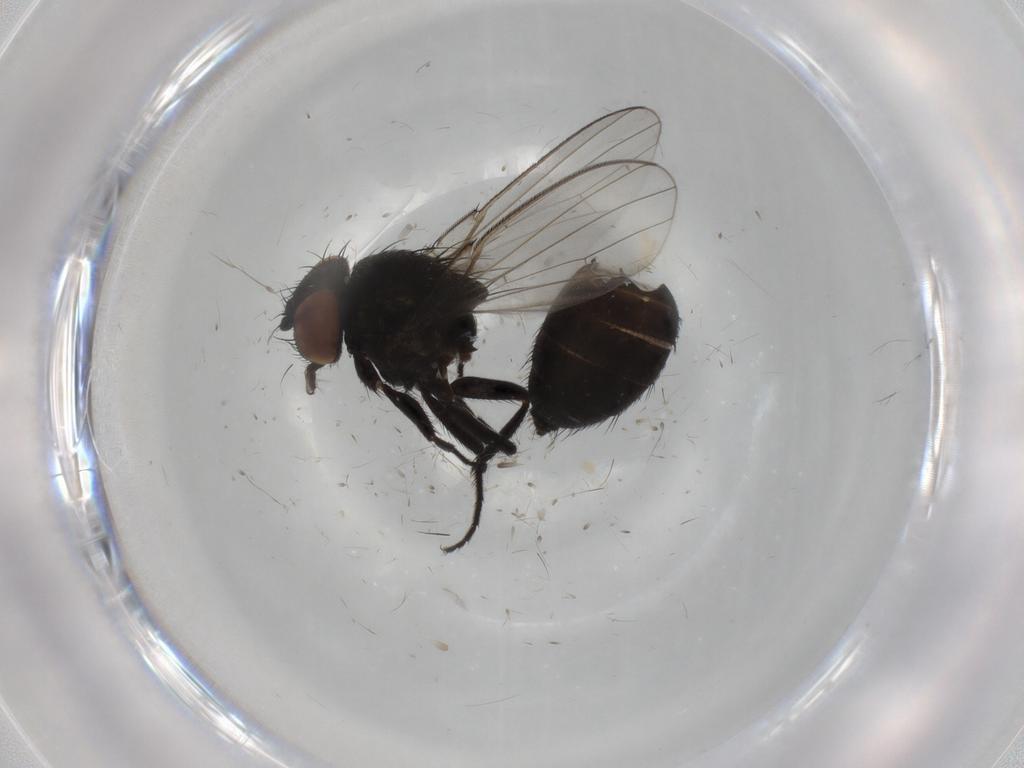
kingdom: Animalia
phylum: Arthropoda
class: Insecta
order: Diptera
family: Milichiidae
